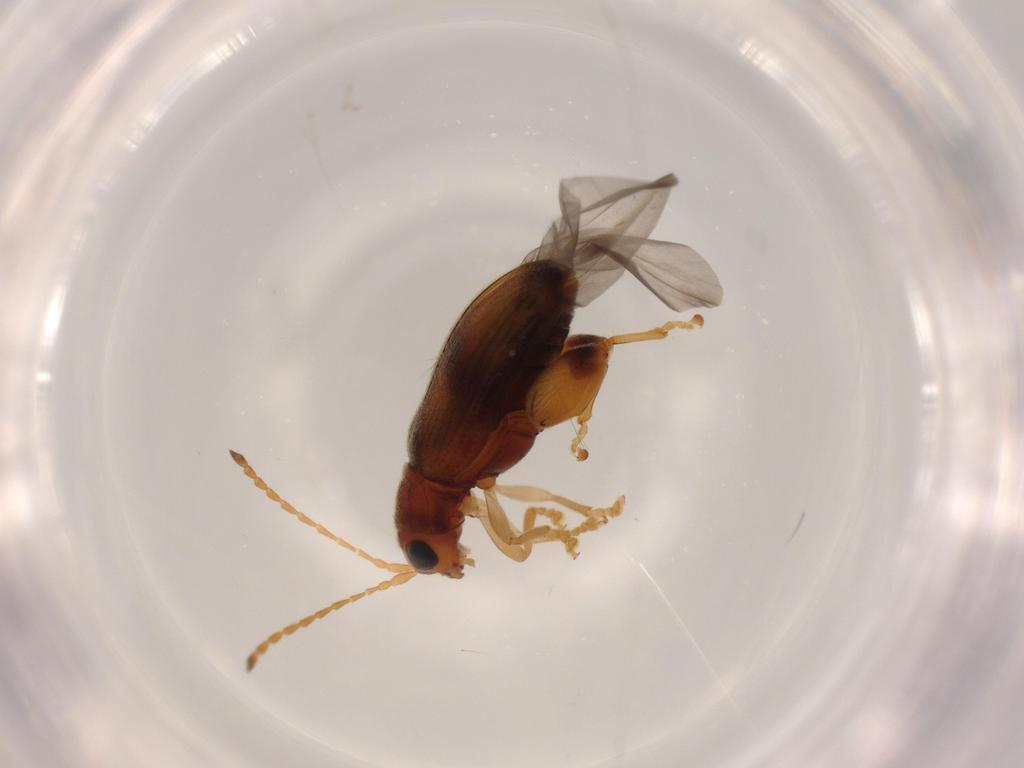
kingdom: Animalia
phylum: Arthropoda
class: Insecta
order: Coleoptera
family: Chrysomelidae
